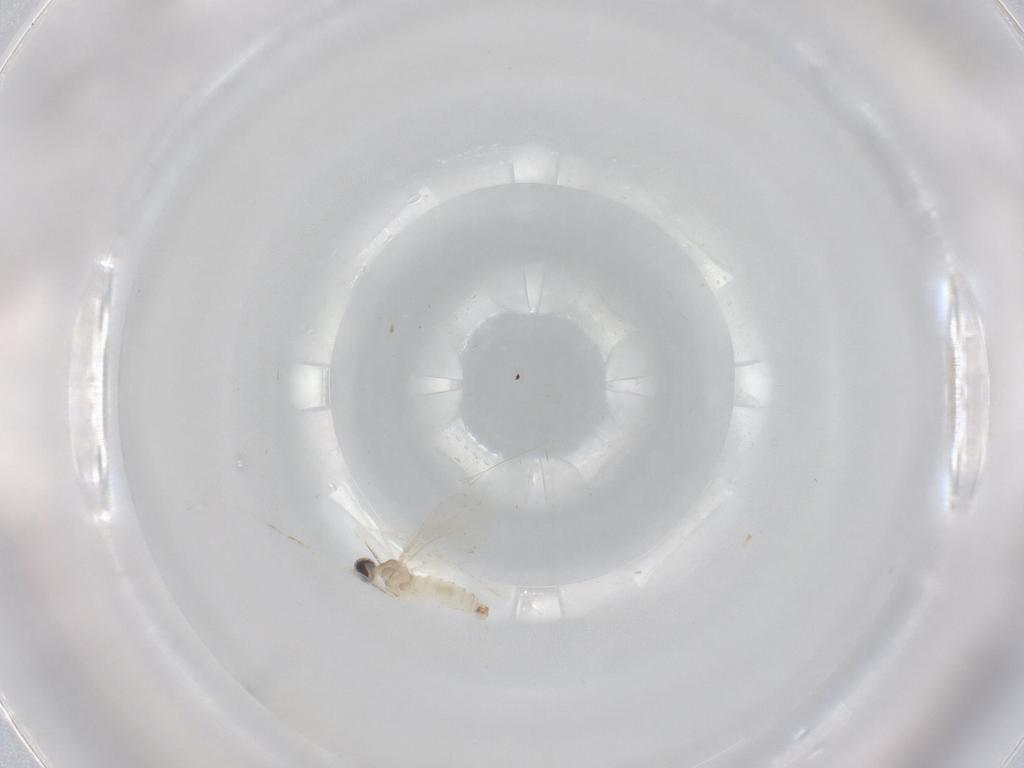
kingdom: Animalia
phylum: Arthropoda
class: Insecta
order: Diptera
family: Cecidomyiidae
